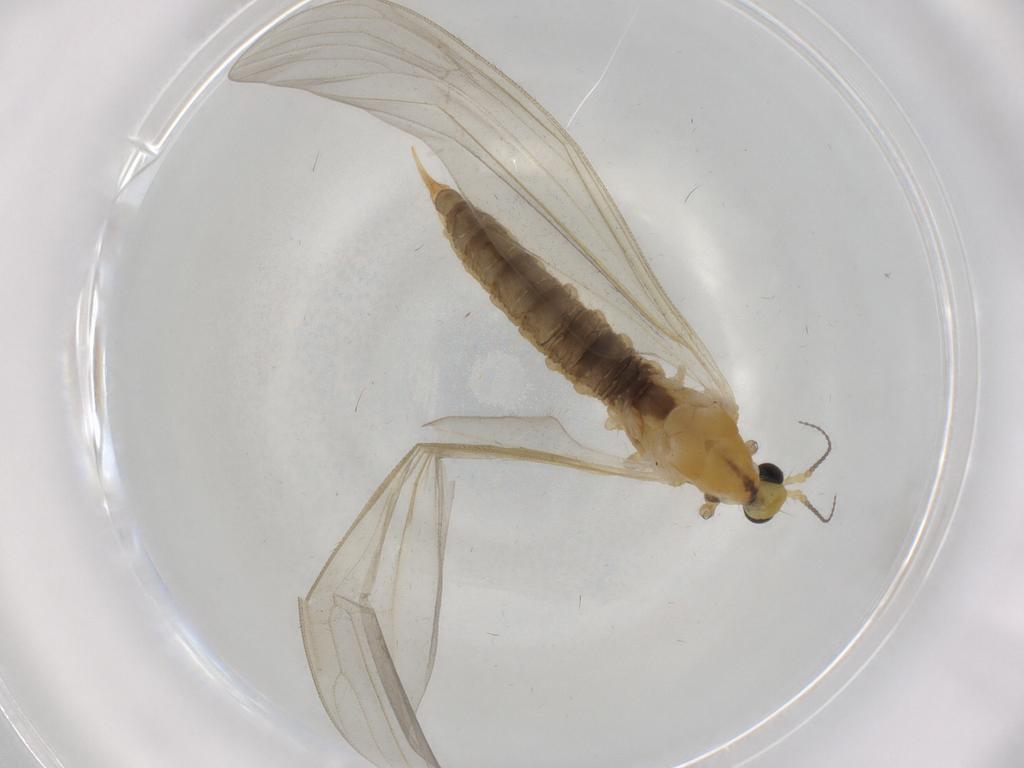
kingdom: Animalia
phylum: Arthropoda
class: Insecta
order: Diptera
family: Limoniidae
